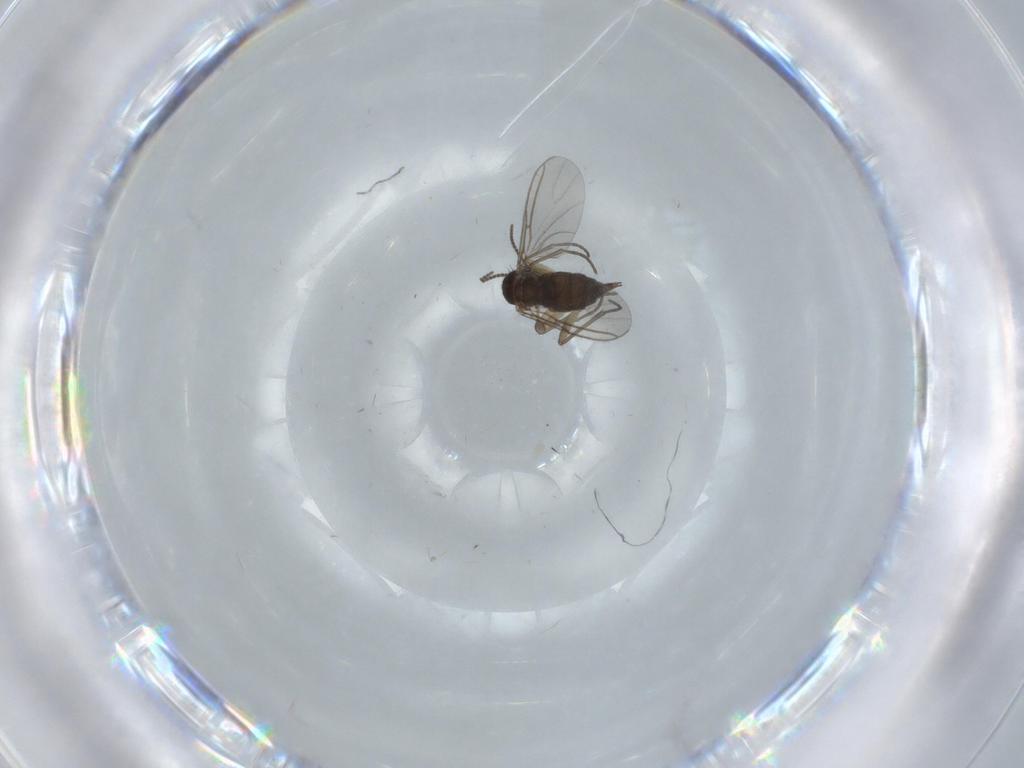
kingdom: Animalia
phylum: Arthropoda
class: Insecta
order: Diptera
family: Sciaridae
